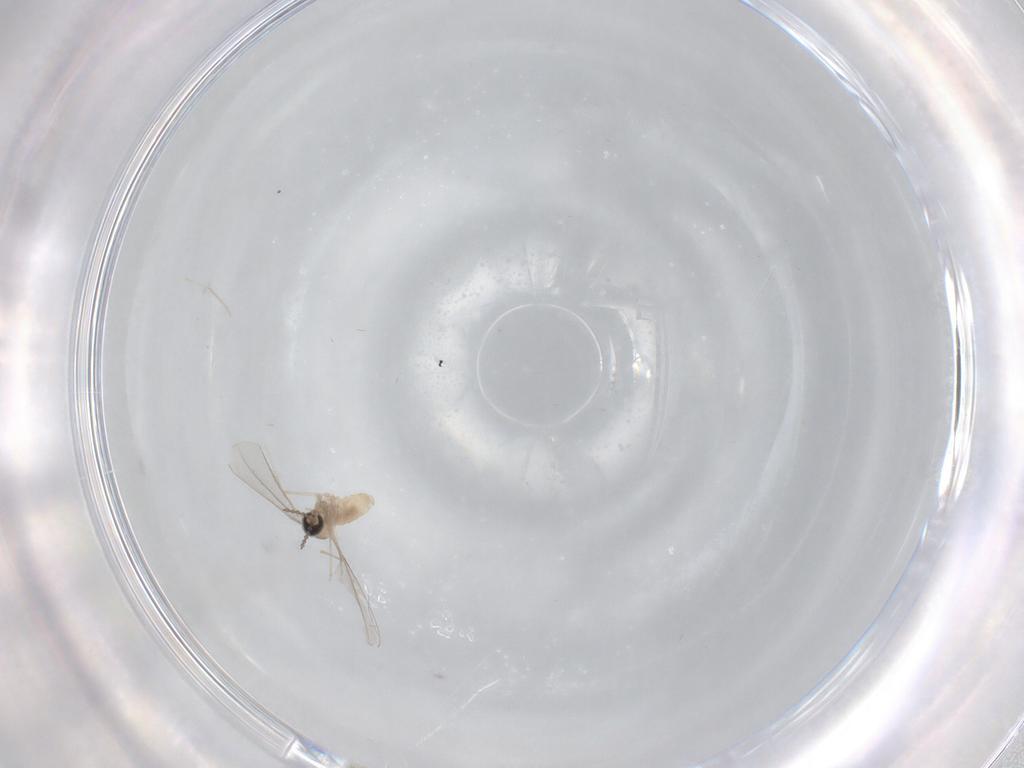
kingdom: Animalia
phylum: Arthropoda
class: Insecta
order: Diptera
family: Cecidomyiidae
